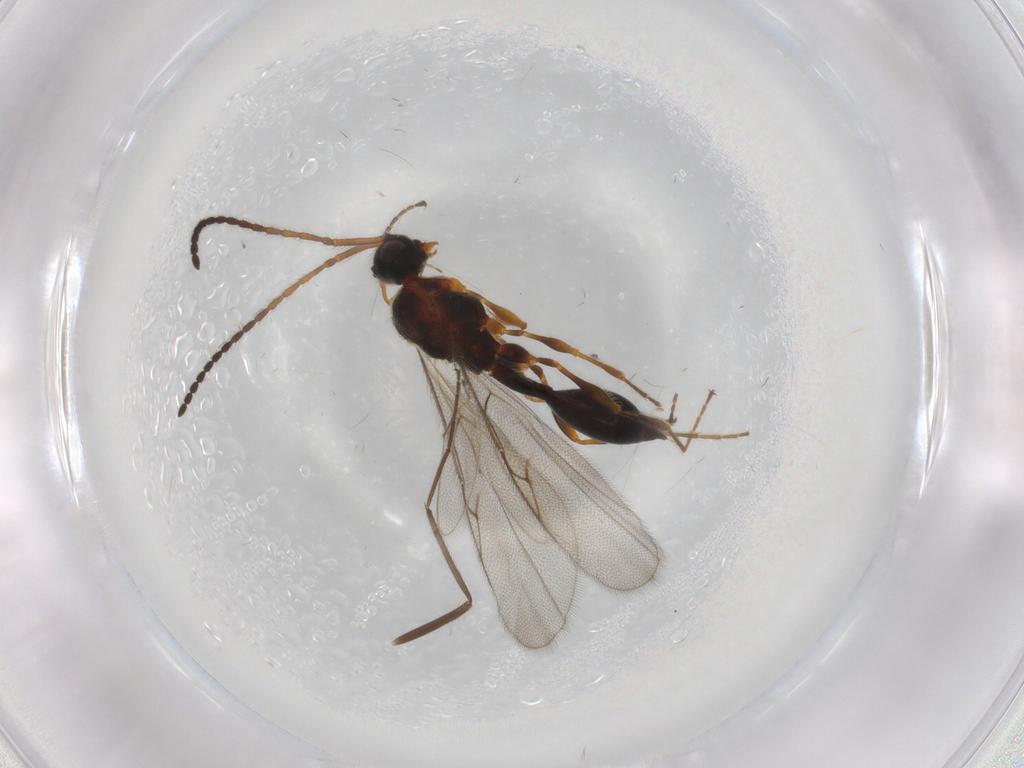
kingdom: Animalia
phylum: Arthropoda
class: Insecta
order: Hymenoptera
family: Diapriidae
